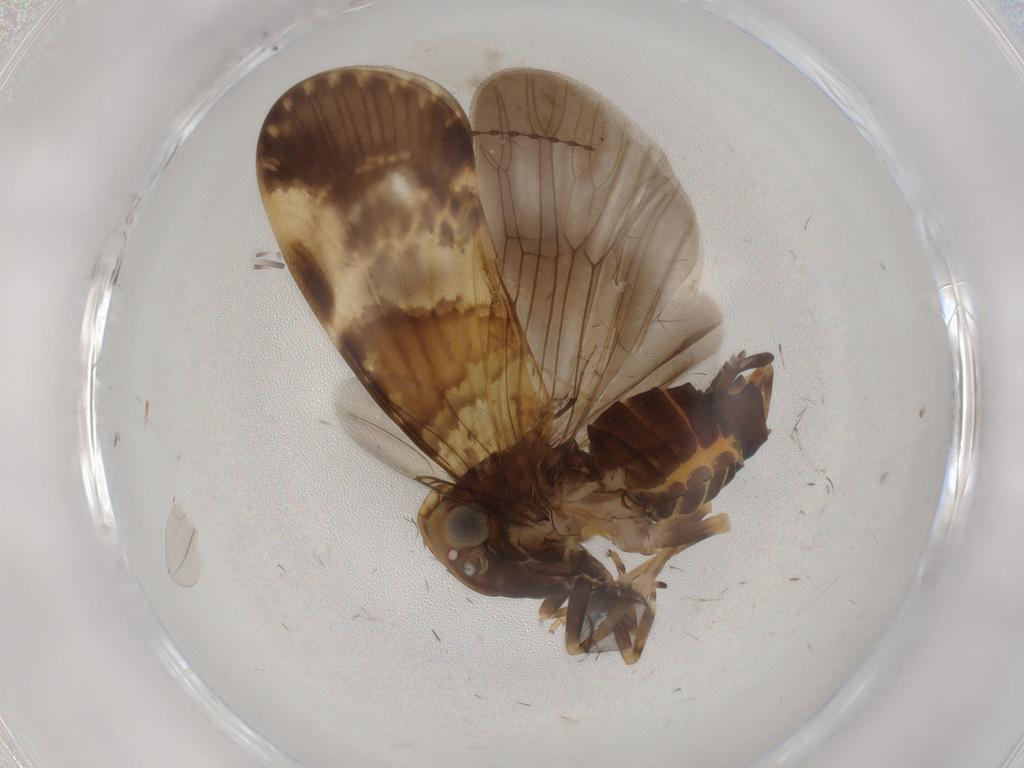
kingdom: Animalia
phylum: Arthropoda
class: Insecta
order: Hemiptera
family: Cixiidae
